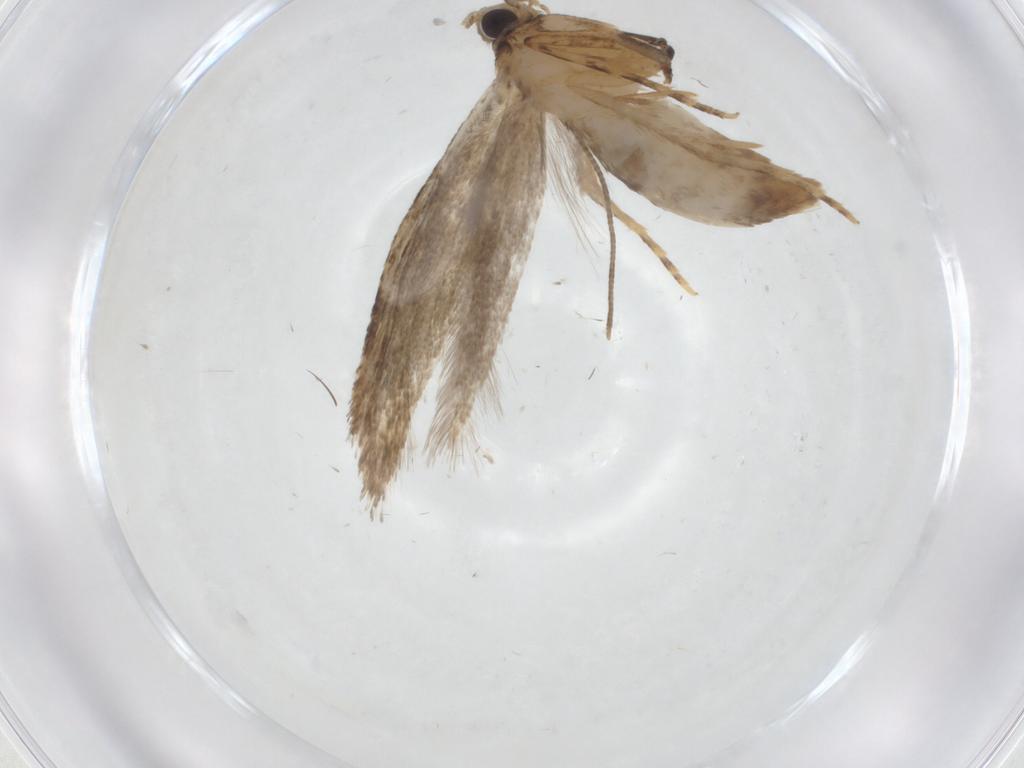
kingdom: Animalia
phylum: Arthropoda
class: Insecta
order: Lepidoptera
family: Tineidae
